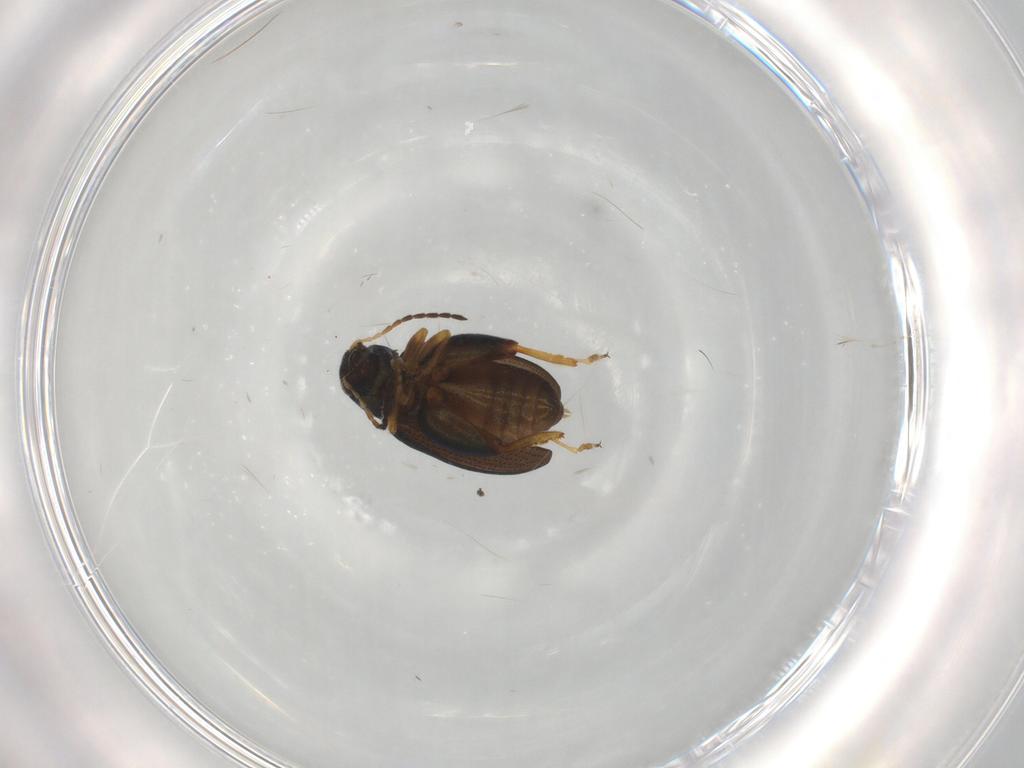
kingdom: Animalia
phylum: Arthropoda
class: Insecta
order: Coleoptera
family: Chrysomelidae
